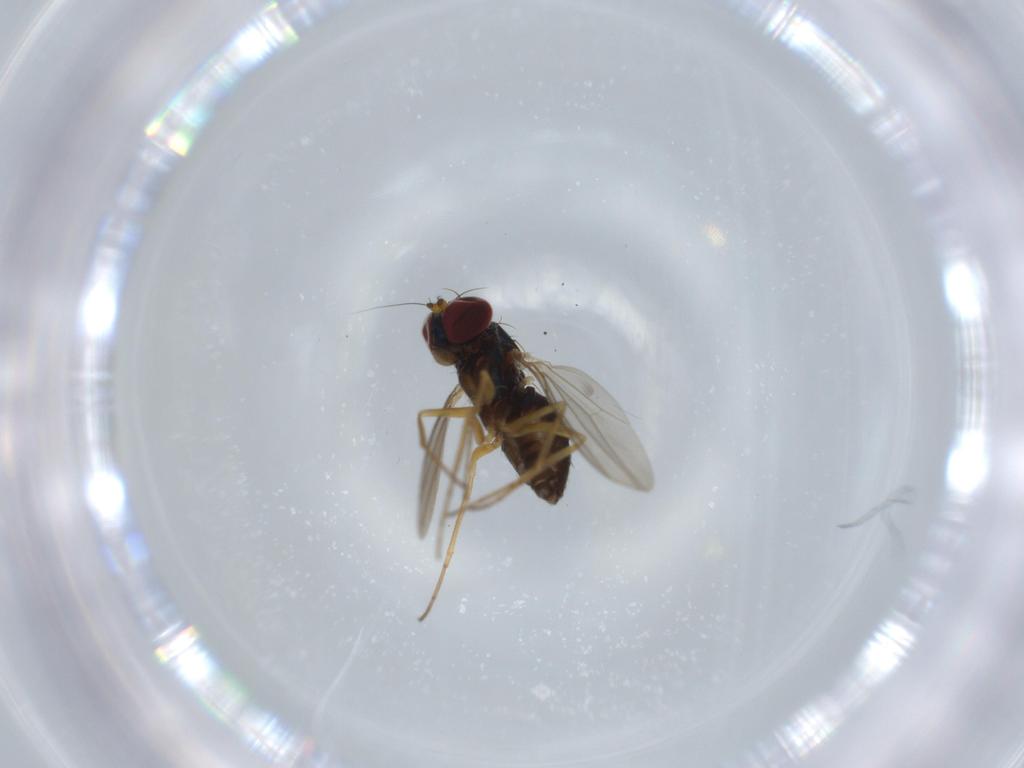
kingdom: Animalia
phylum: Arthropoda
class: Insecta
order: Diptera
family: Dolichopodidae
